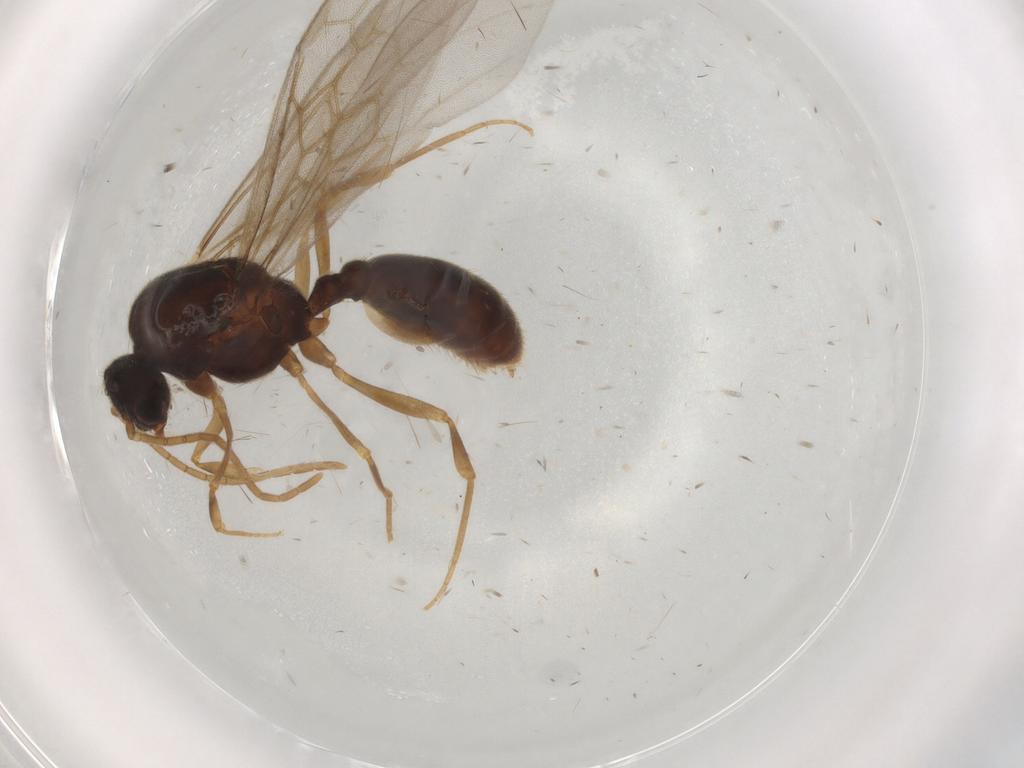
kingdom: Animalia
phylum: Arthropoda
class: Insecta
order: Hymenoptera
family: Formicidae
